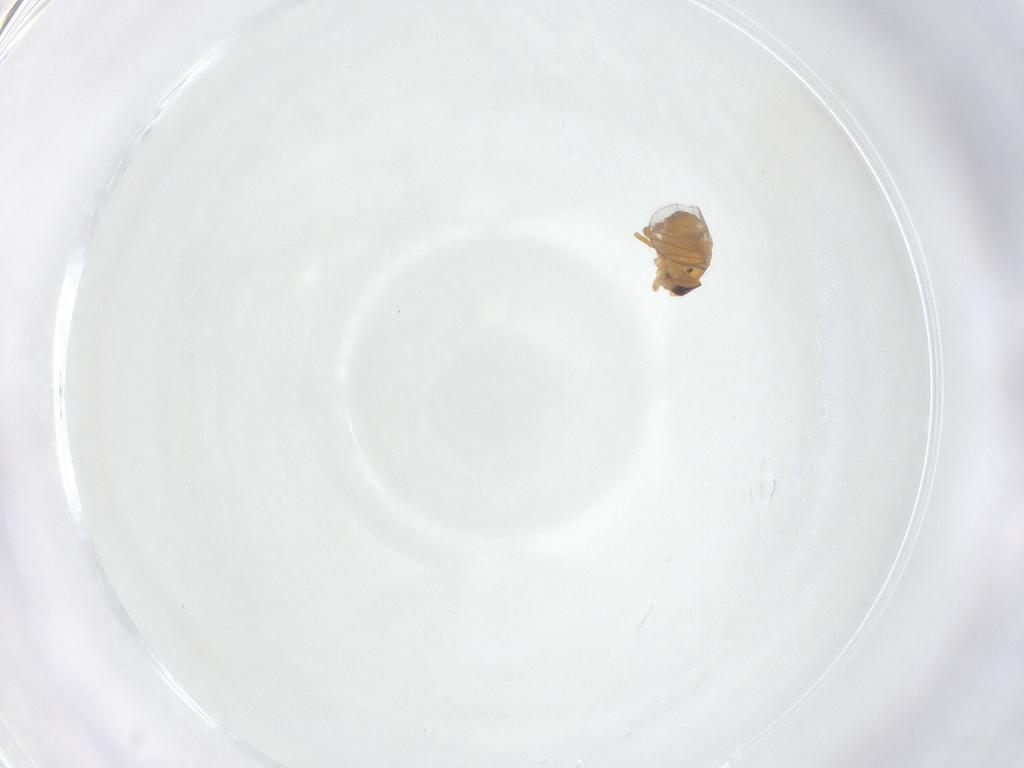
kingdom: Animalia
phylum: Arthropoda
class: Insecta
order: Diptera
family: Chloropidae
